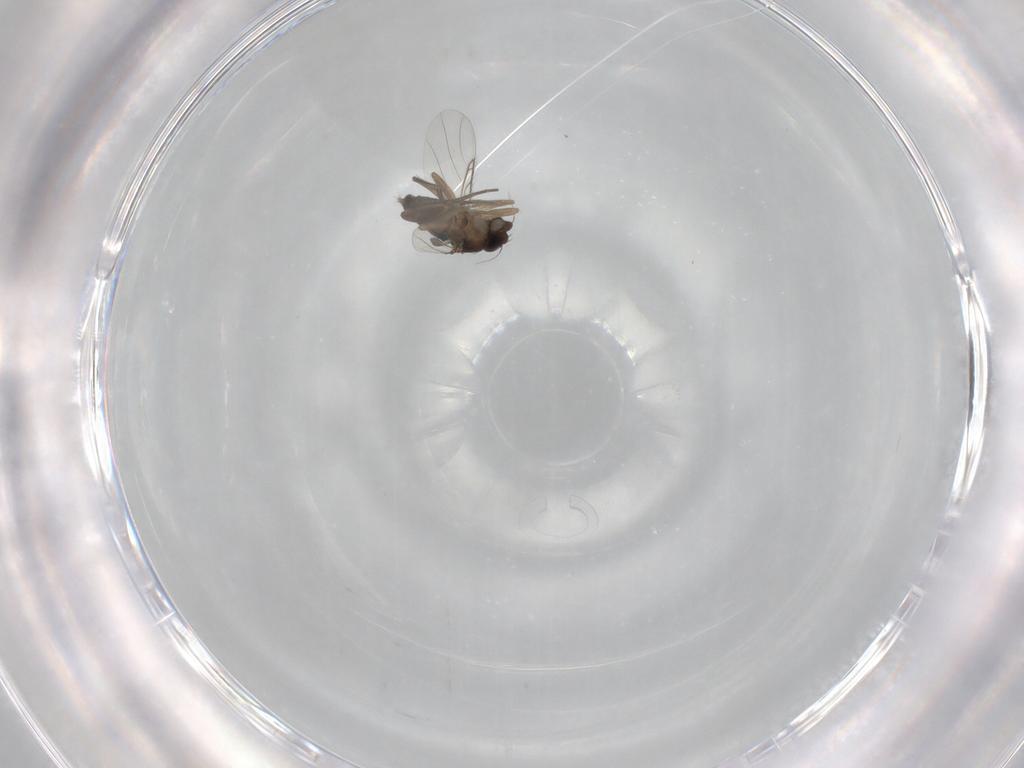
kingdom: Animalia
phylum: Arthropoda
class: Insecta
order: Diptera
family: Phoridae
